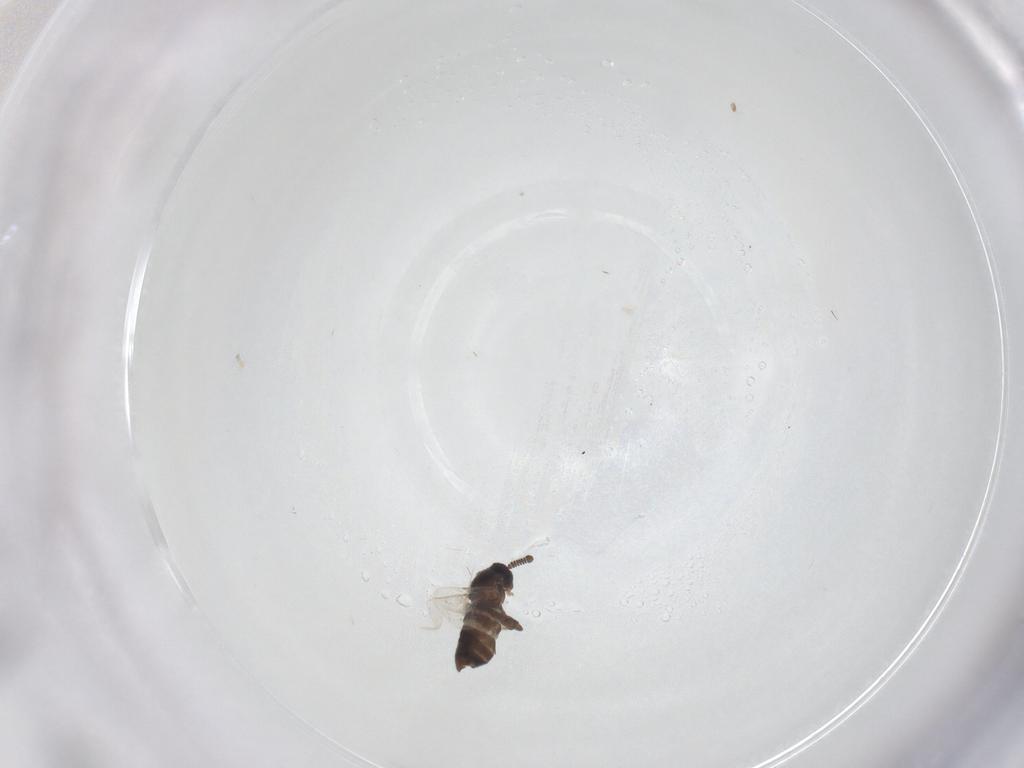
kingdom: Animalia
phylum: Arthropoda
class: Insecta
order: Diptera
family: Scatopsidae
